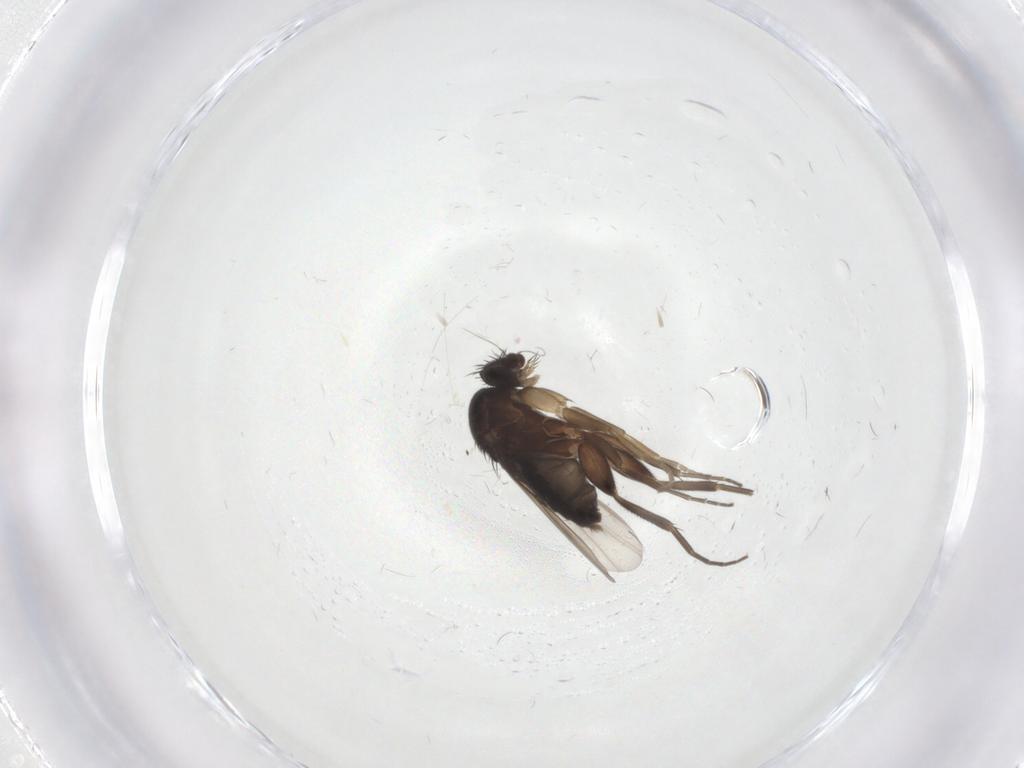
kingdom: Animalia
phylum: Arthropoda
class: Insecta
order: Diptera
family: Phoridae
